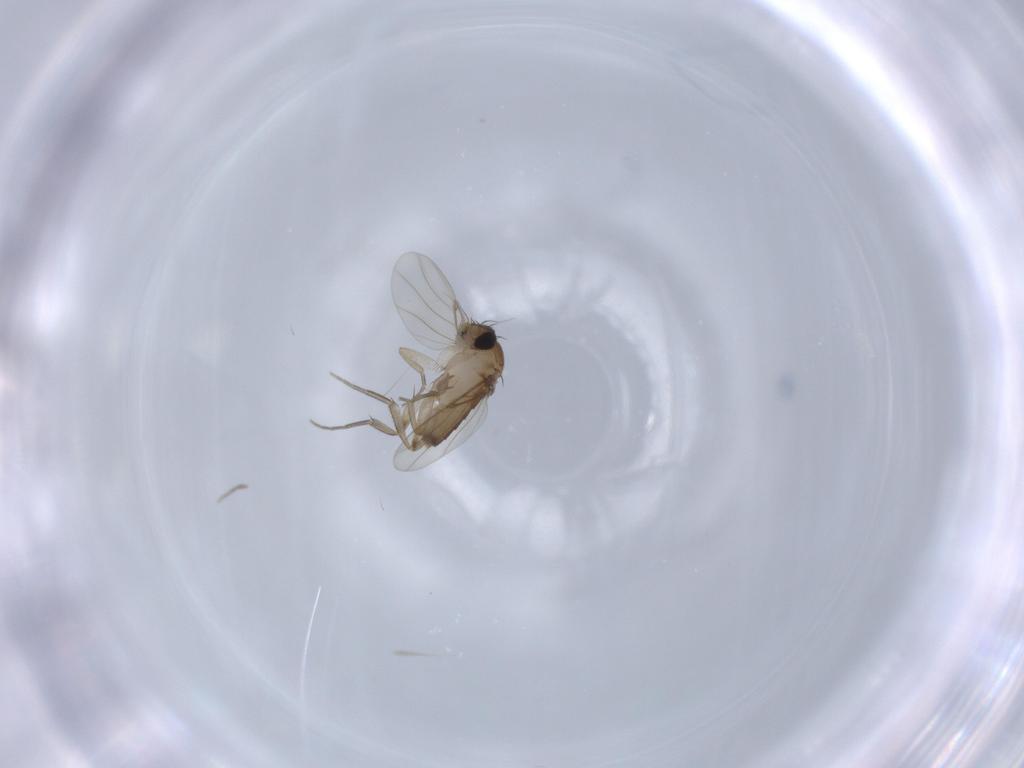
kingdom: Animalia
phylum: Arthropoda
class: Insecta
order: Diptera
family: Phoridae
